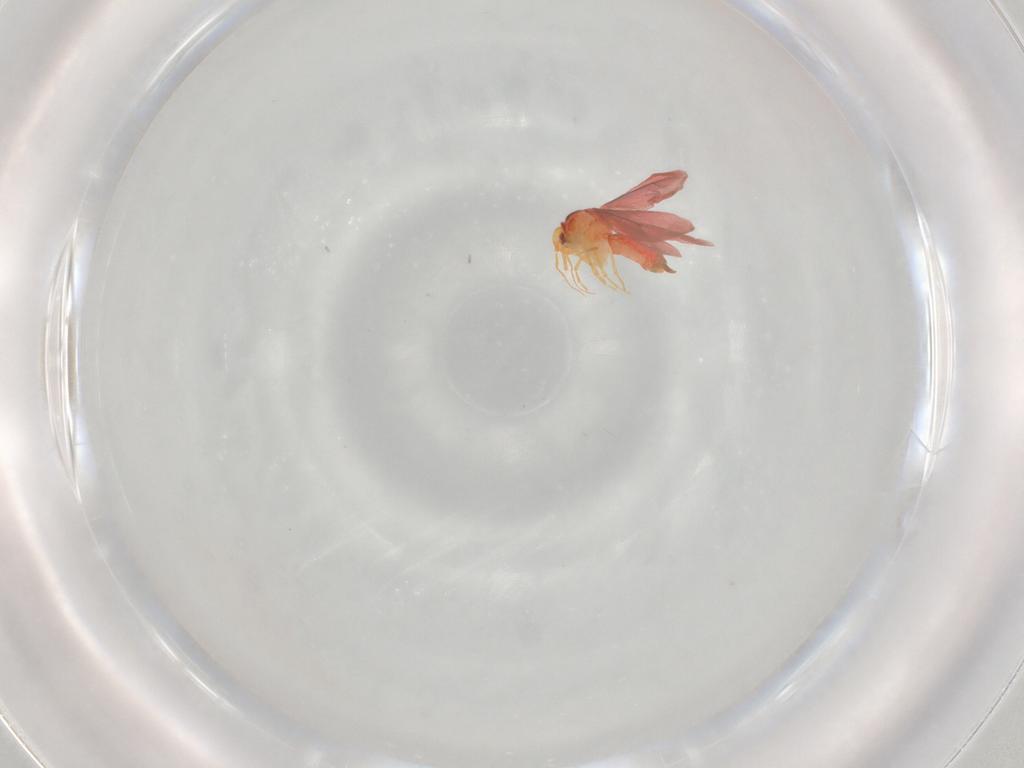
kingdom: Animalia
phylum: Arthropoda
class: Insecta
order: Hemiptera
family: Aleyrodidae
